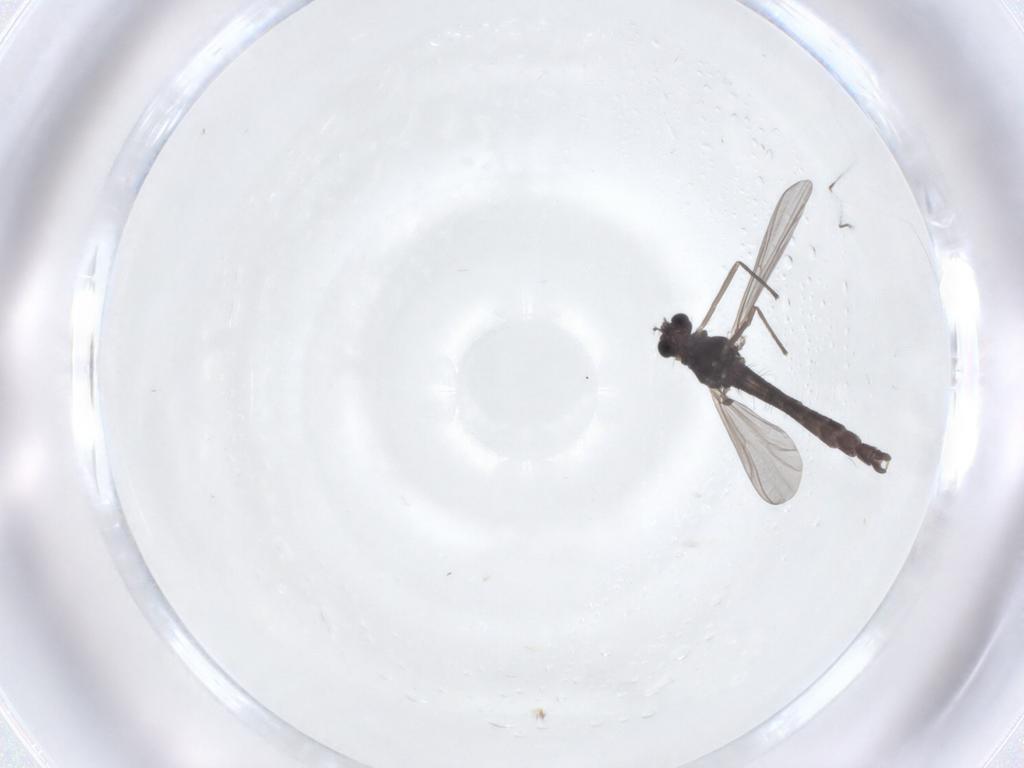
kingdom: Animalia
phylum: Arthropoda
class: Insecta
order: Diptera
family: Chironomidae
